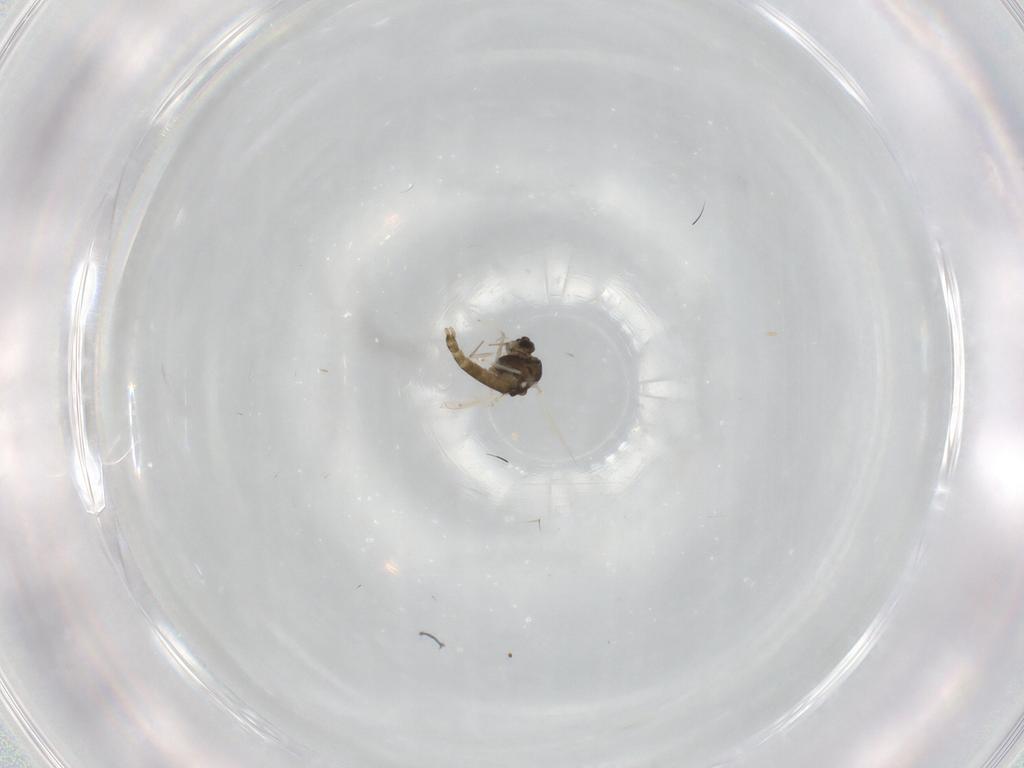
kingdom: Animalia
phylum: Arthropoda
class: Insecta
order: Diptera
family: Chironomidae
